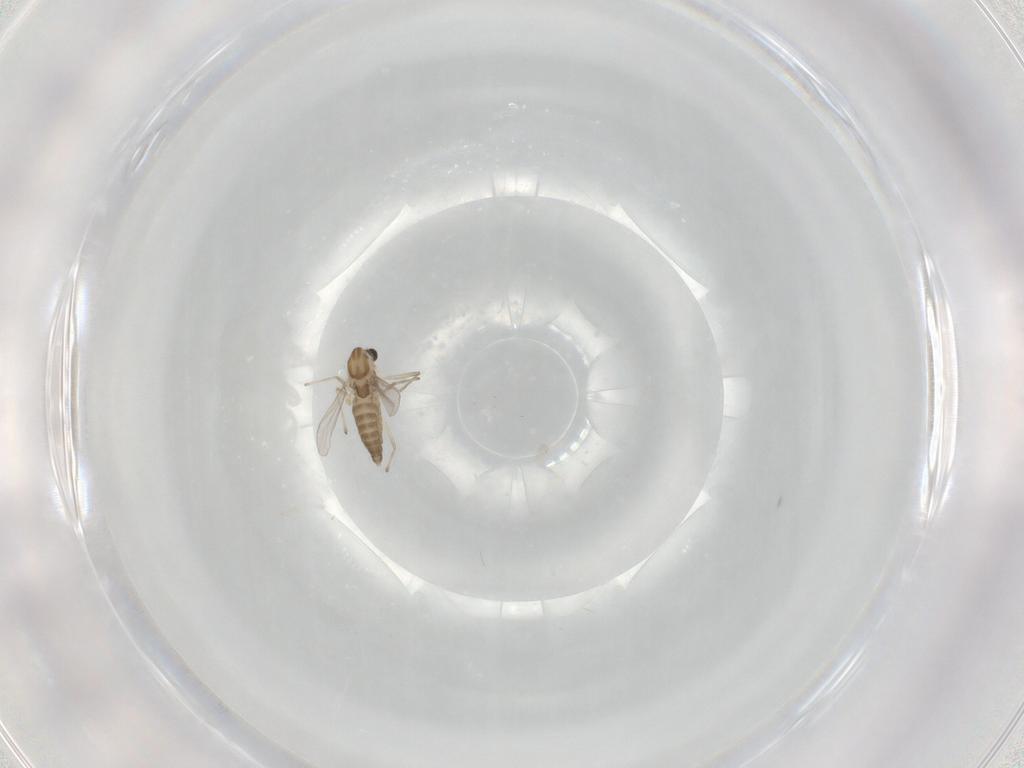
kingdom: Animalia
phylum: Arthropoda
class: Insecta
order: Diptera
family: Chironomidae
